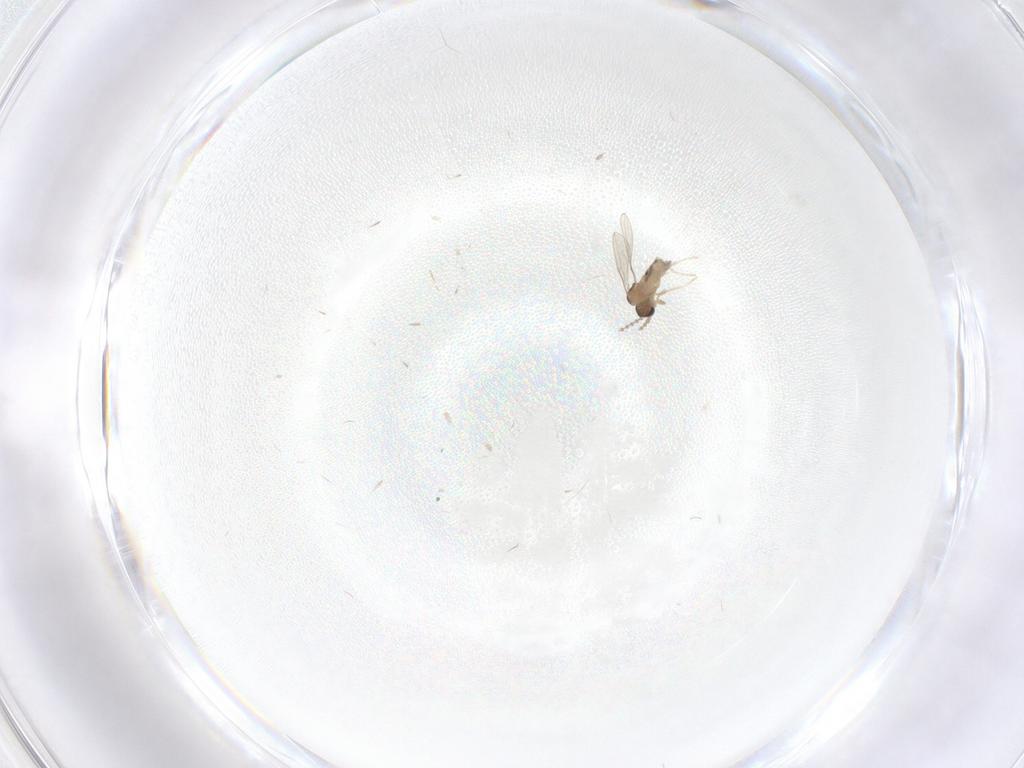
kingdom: Animalia
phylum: Arthropoda
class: Insecta
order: Diptera
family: Cecidomyiidae
